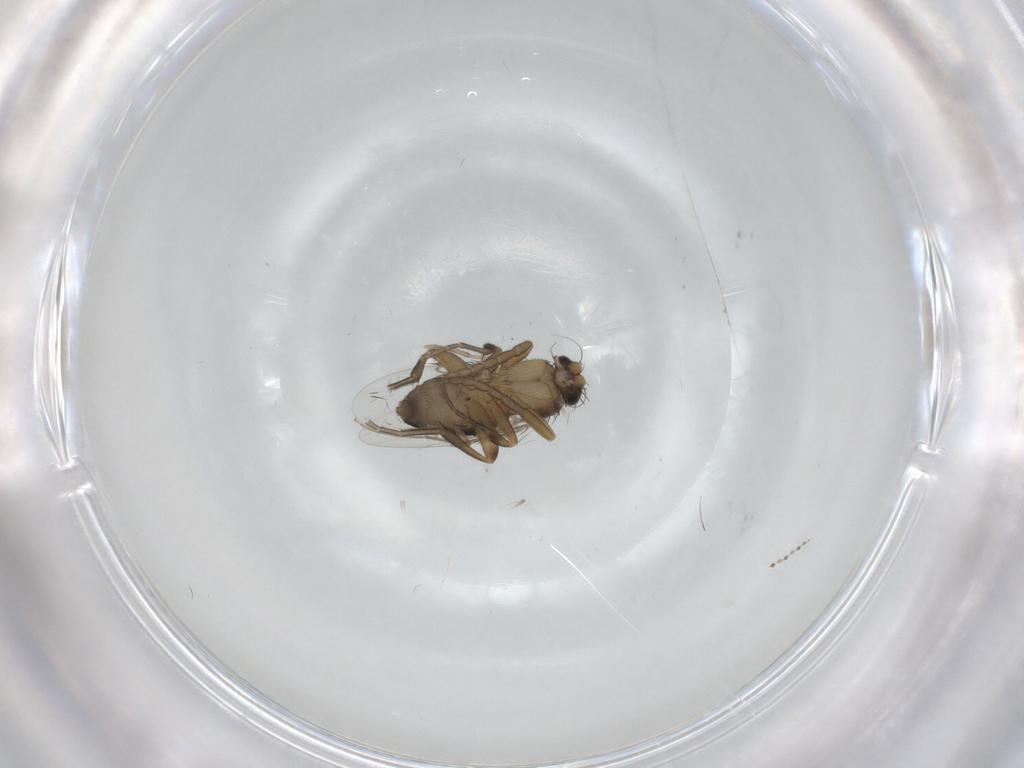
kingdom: Animalia
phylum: Arthropoda
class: Insecta
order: Diptera
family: Phoridae
